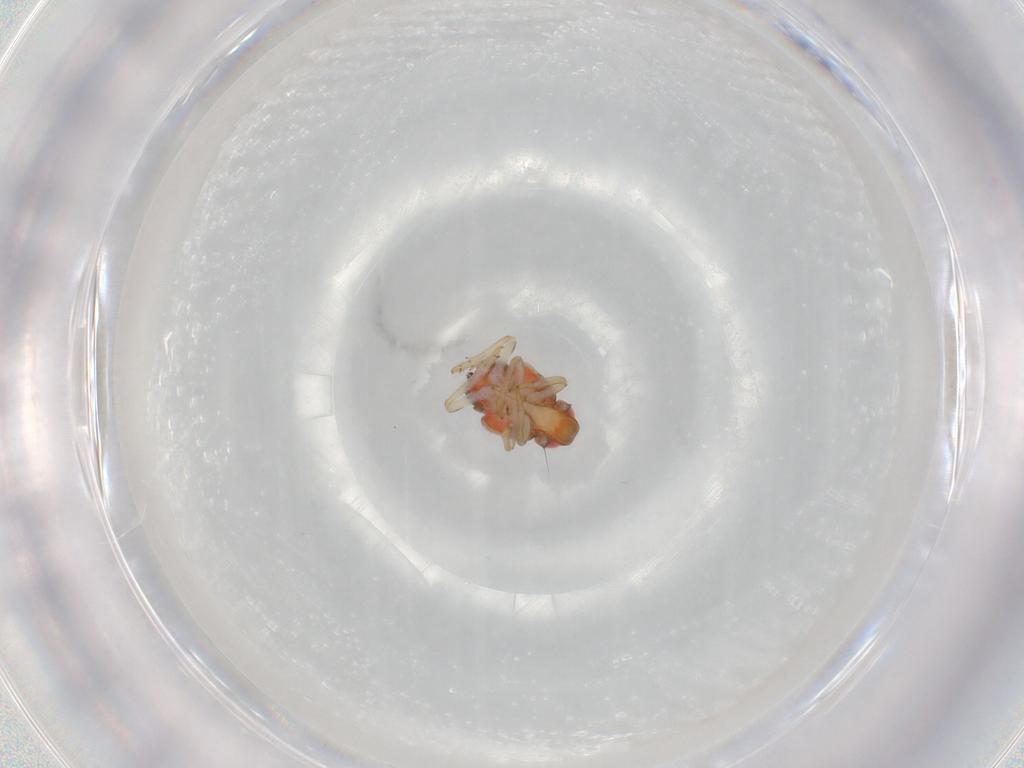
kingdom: Animalia
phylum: Arthropoda
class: Insecta
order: Hemiptera
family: Issidae
